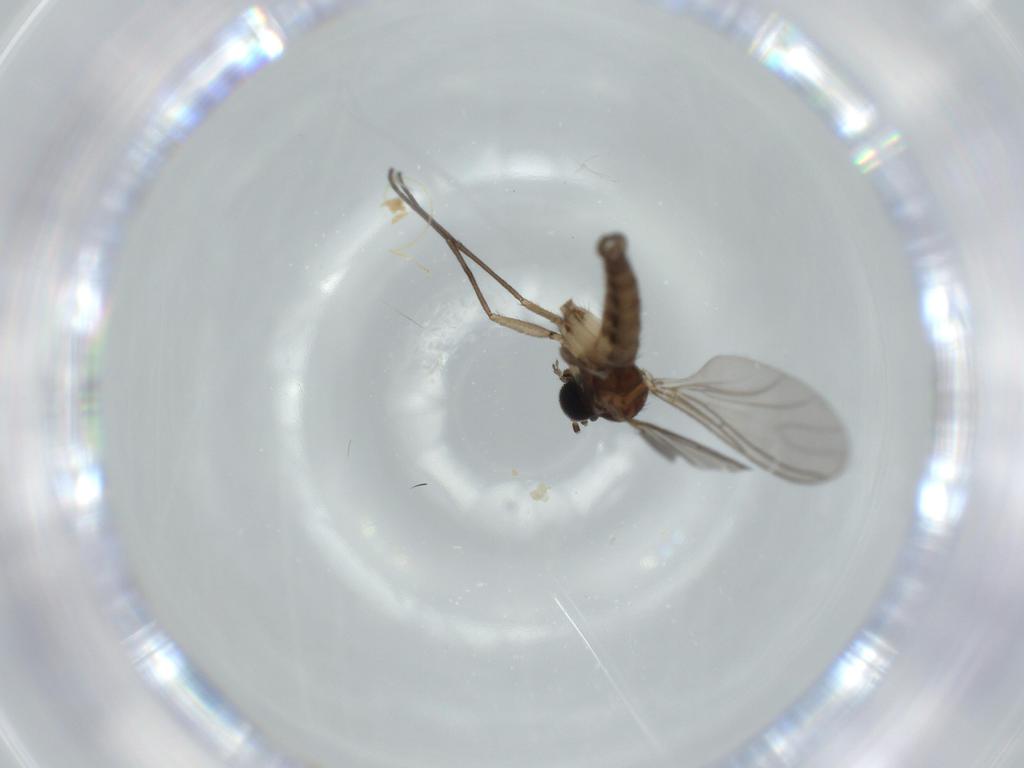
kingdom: Animalia
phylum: Arthropoda
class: Insecta
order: Diptera
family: Sciaridae
